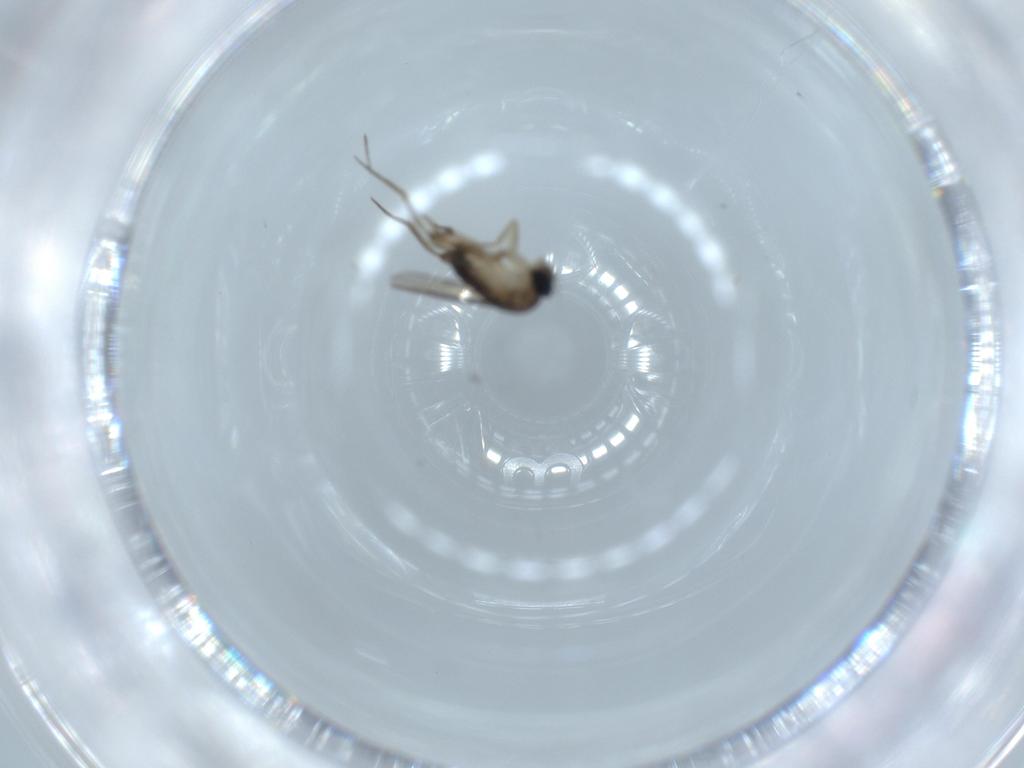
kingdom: Animalia
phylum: Arthropoda
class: Insecta
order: Diptera
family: Phoridae
